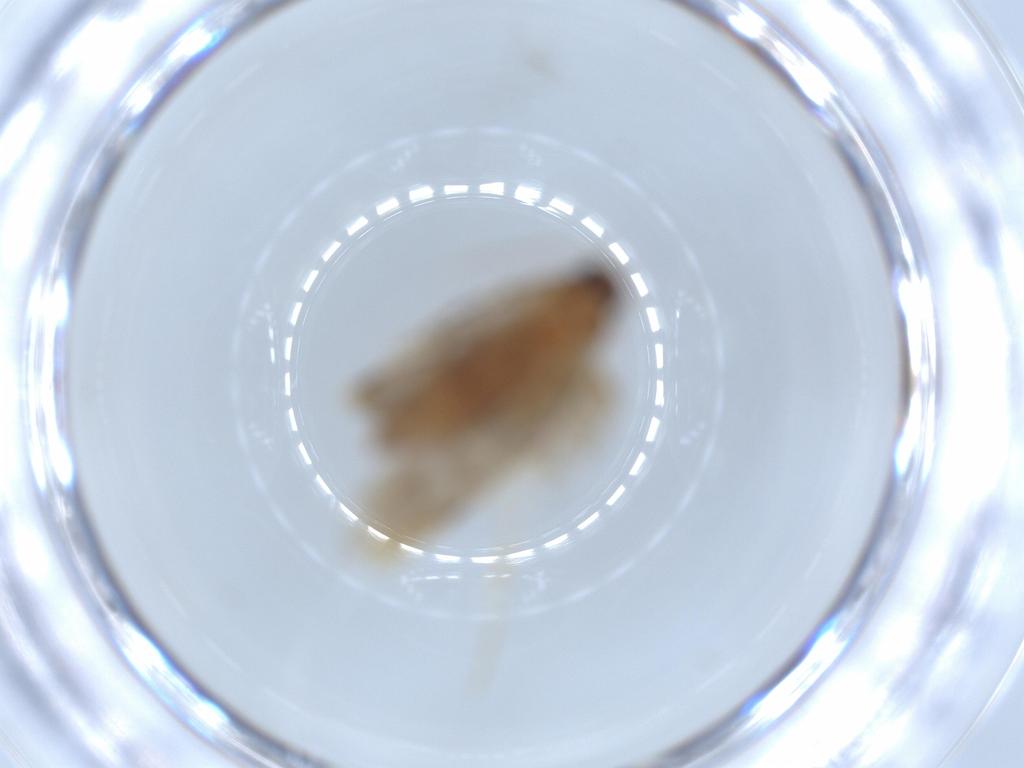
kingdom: Animalia
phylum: Arthropoda
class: Insecta
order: Lepidoptera
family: Tineidae
